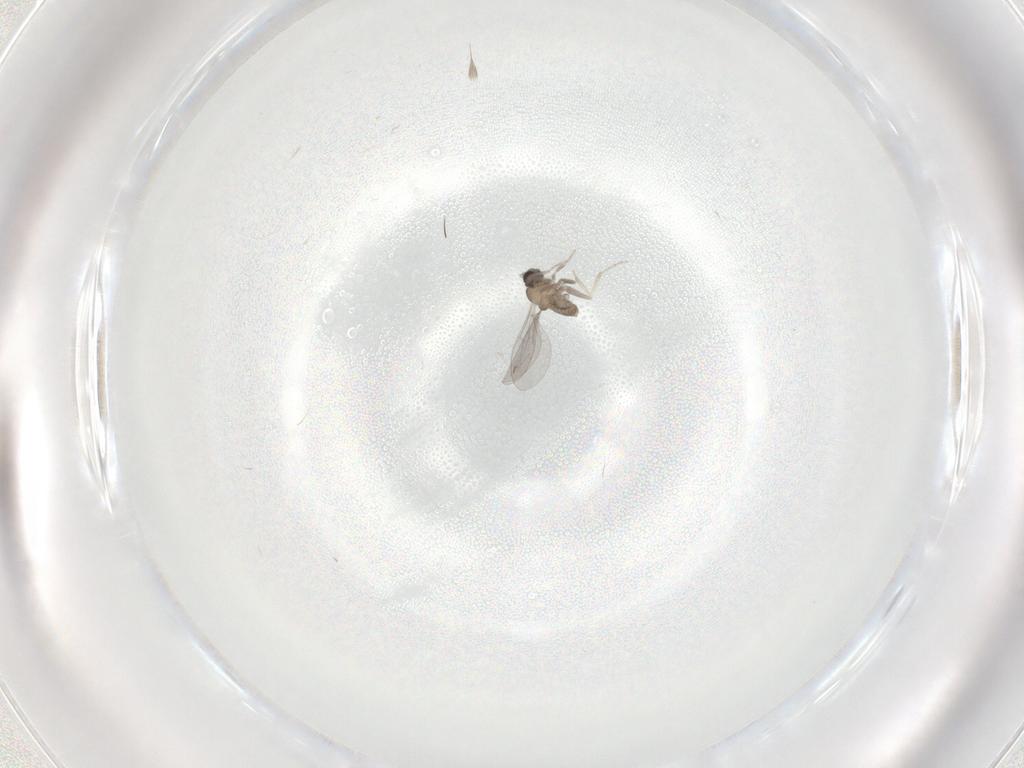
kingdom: Animalia
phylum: Arthropoda
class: Insecta
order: Diptera
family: Cecidomyiidae
